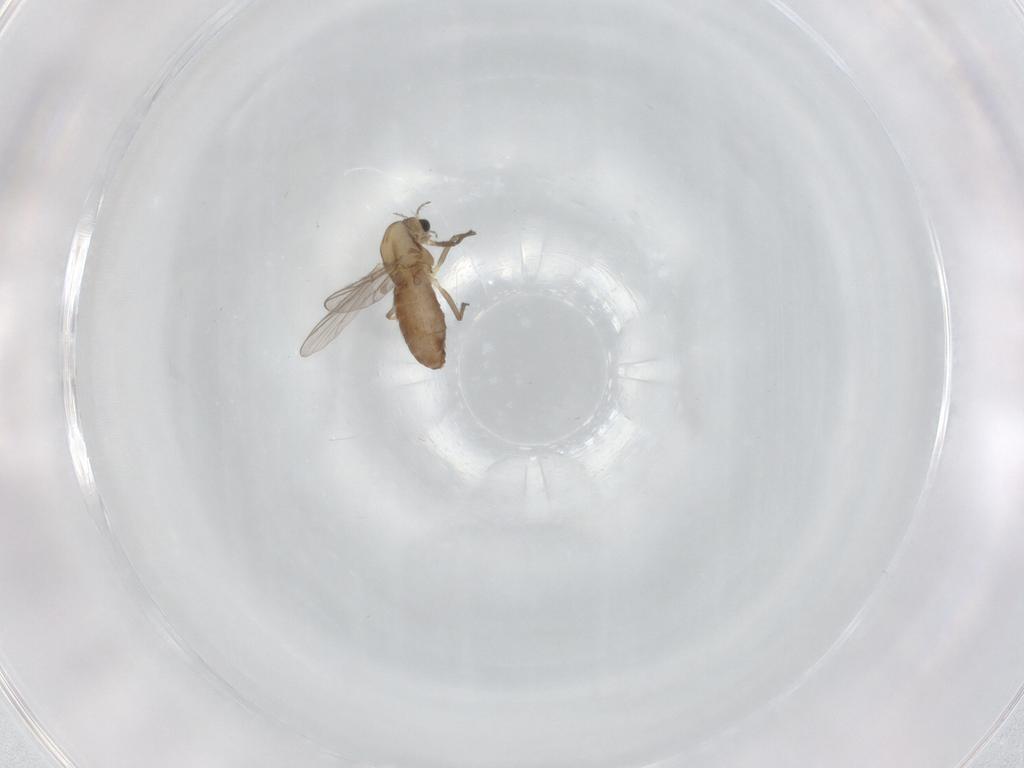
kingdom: Animalia
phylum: Arthropoda
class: Insecta
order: Diptera
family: Chironomidae
